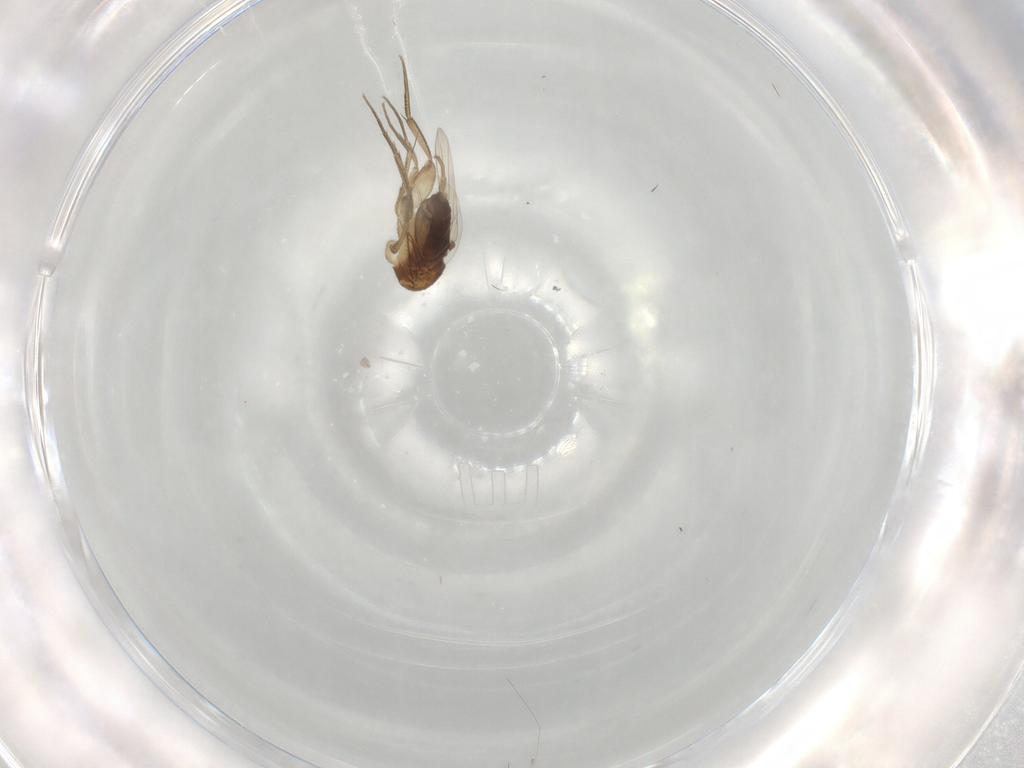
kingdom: Animalia
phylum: Arthropoda
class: Insecta
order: Diptera
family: Phoridae
